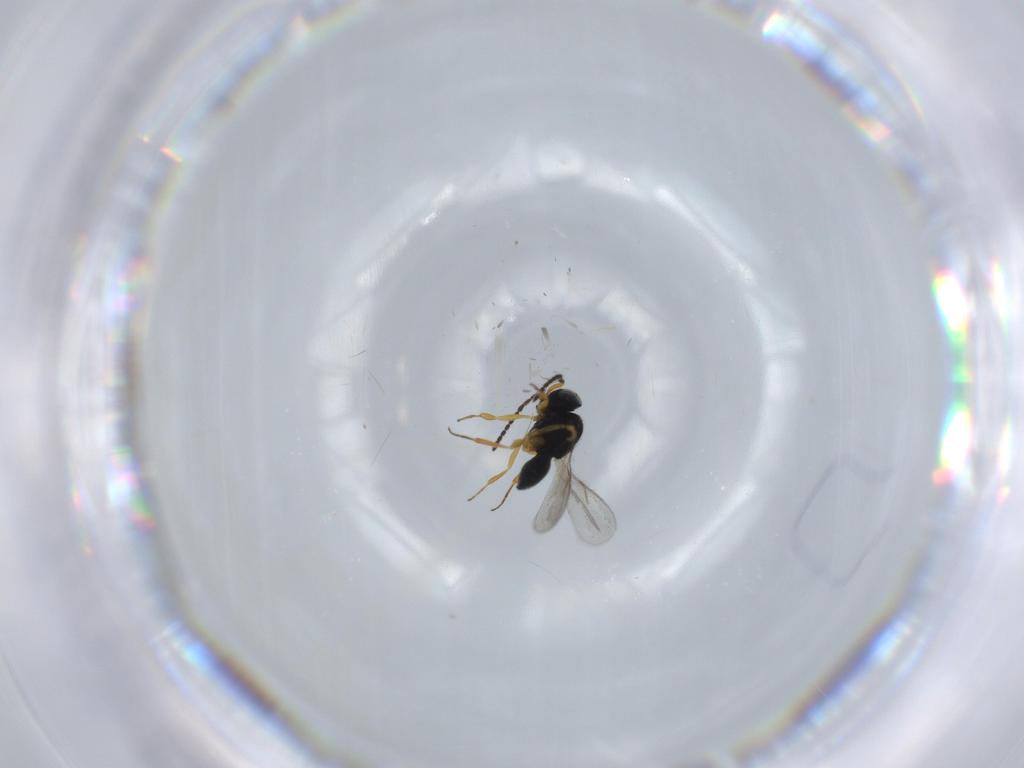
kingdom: Animalia
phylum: Arthropoda
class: Insecta
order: Hymenoptera
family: Scelionidae
